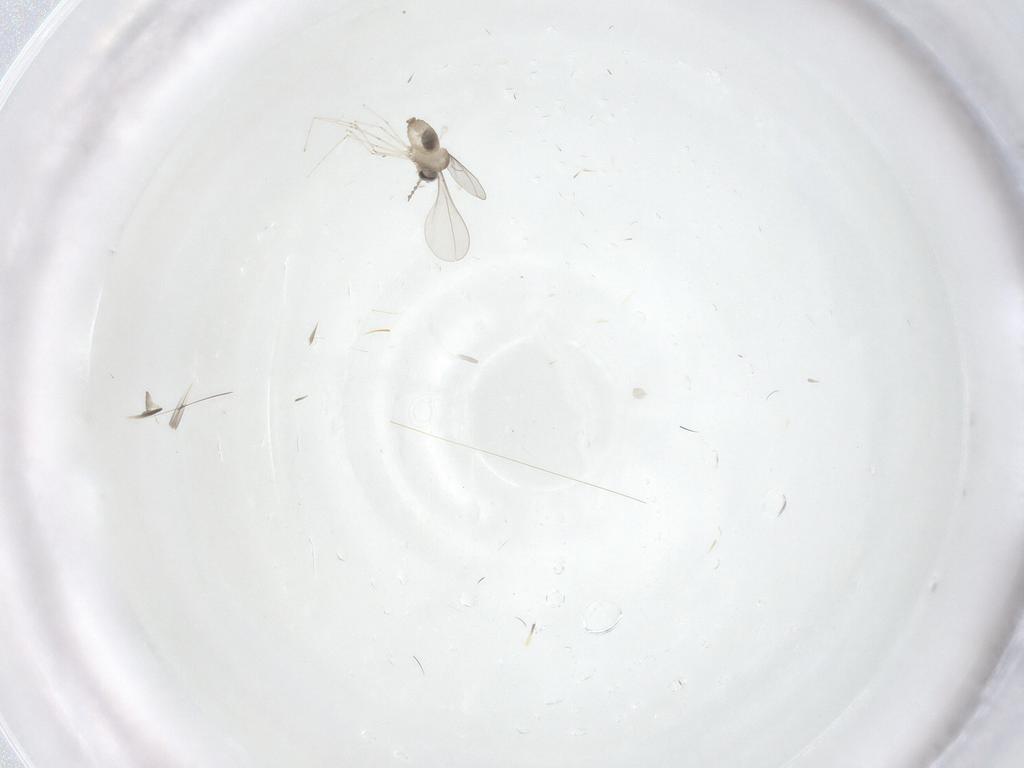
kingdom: Animalia
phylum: Arthropoda
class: Insecta
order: Diptera
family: Cecidomyiidae
